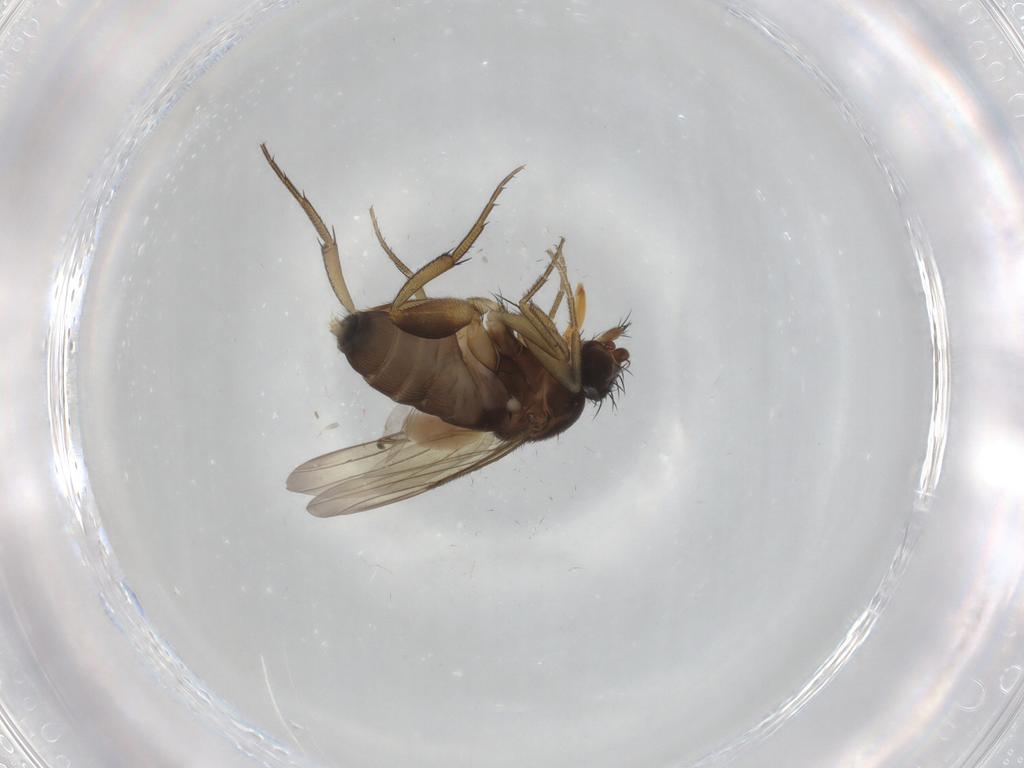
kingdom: Animalia
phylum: Arthropoda
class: Insecta
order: Diptera
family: Phoridae
